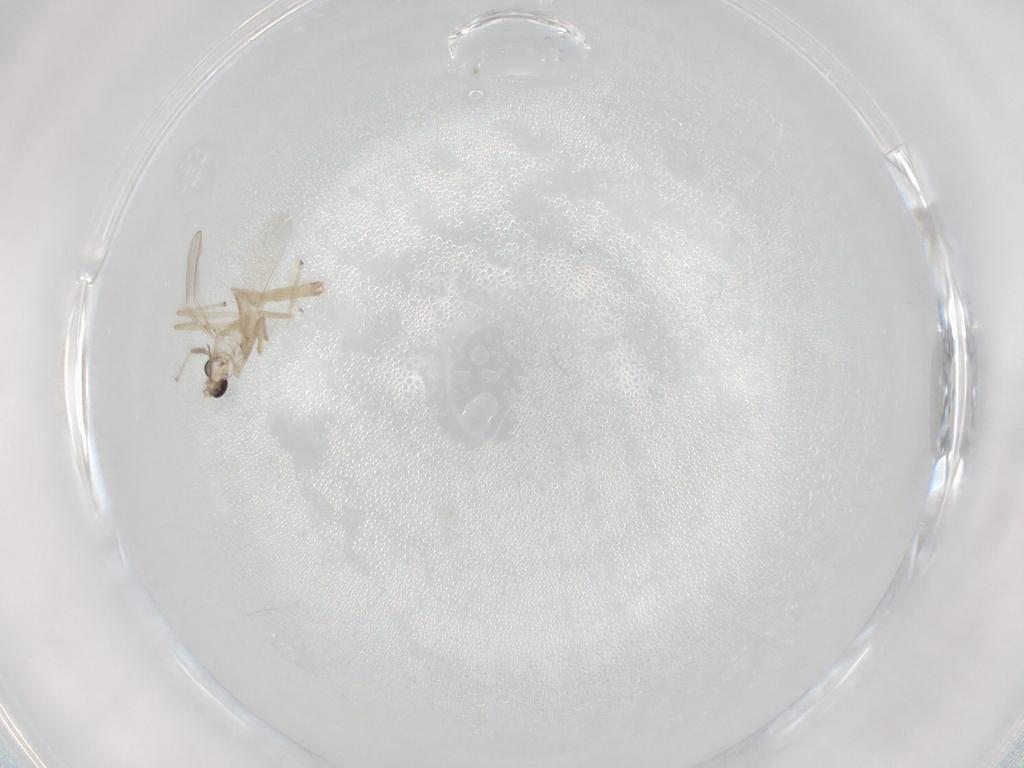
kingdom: Animalia
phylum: Arthropoda
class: Insecta
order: Diptera
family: Chironomidae
